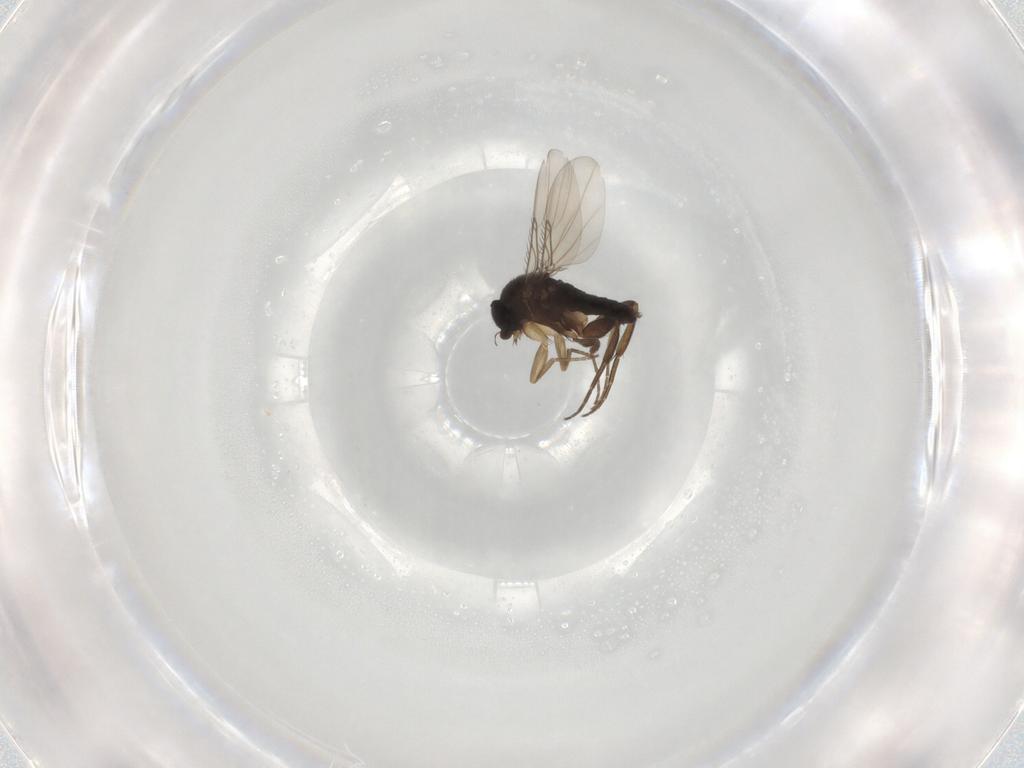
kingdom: Animalia
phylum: Arthropoda
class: Insecta
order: Diptera
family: Phoridae
